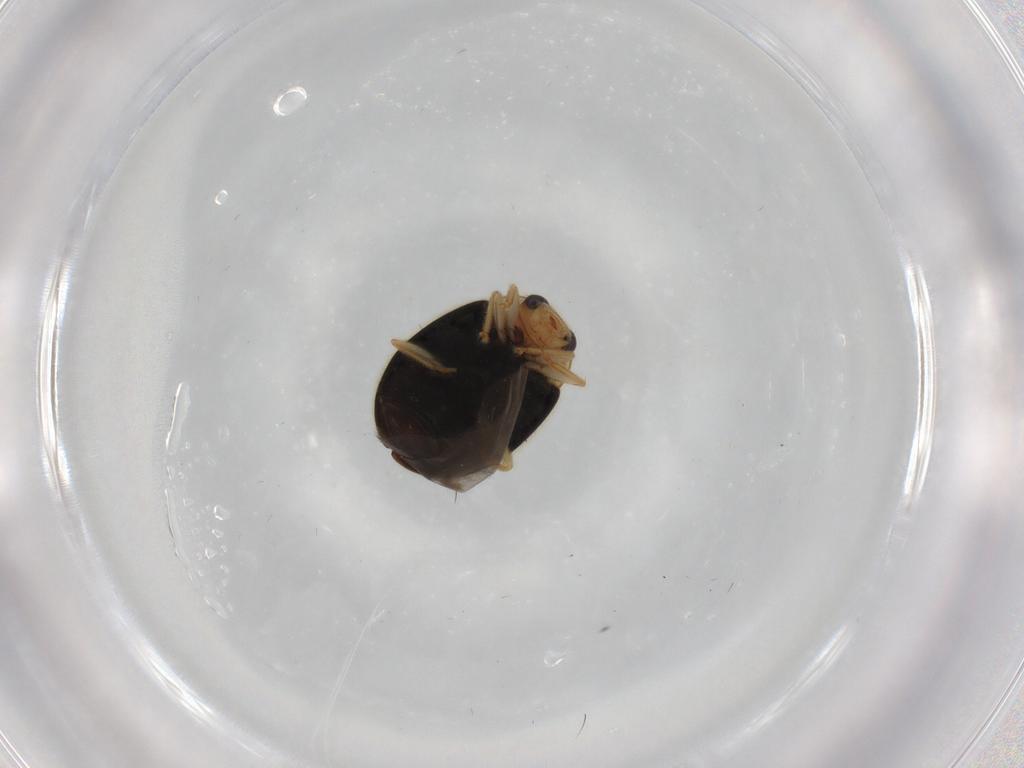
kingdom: Animalia
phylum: Arthropoda
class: Insecta
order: Coleoptera
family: Coccinellidae
